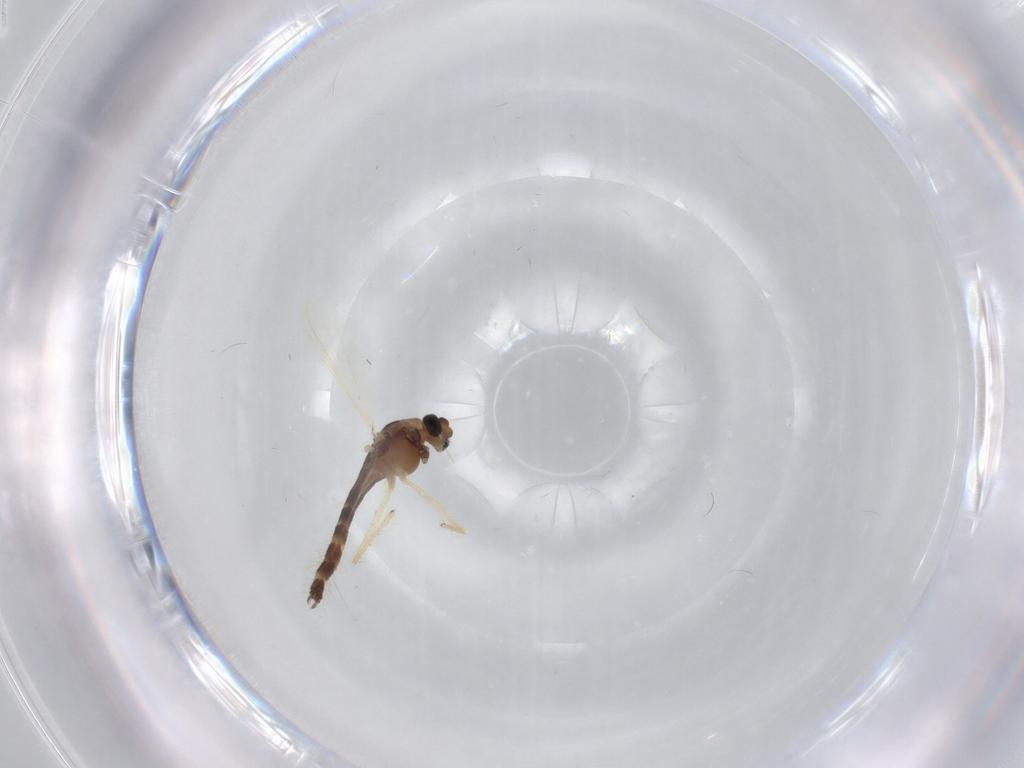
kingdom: Animalia
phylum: Arthropoda
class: Insecta
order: Diptera
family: Chironomidae
